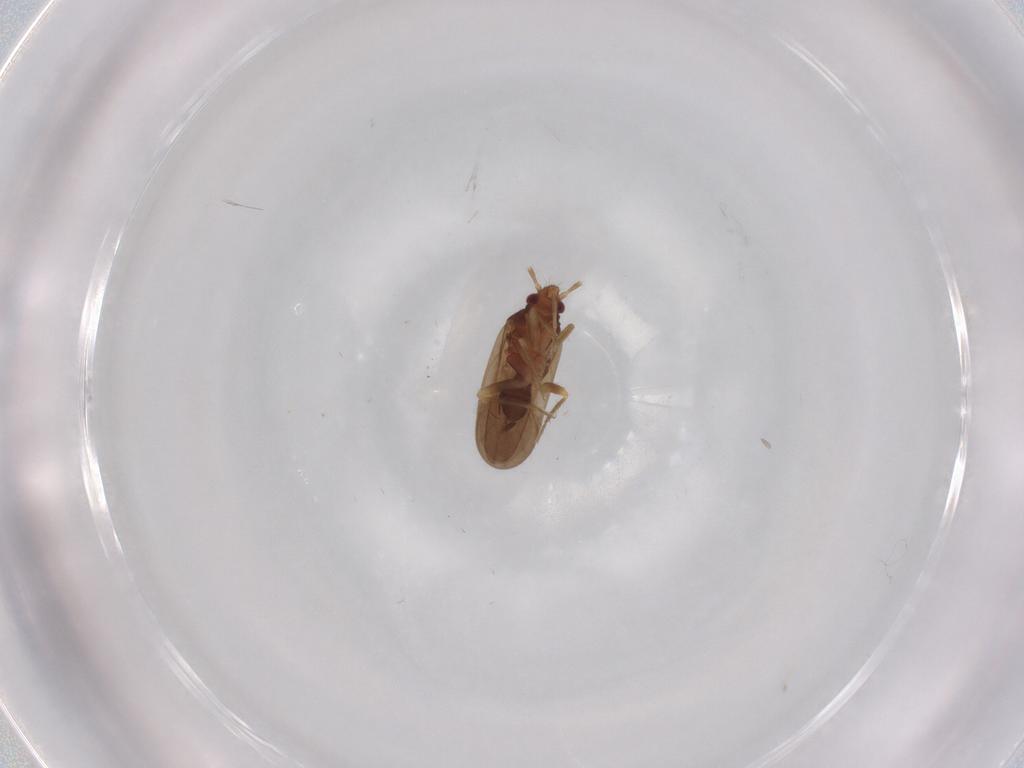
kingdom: Animalia
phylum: Arthropoda
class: Insecta
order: Hemiptera
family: Ceratocombidae
